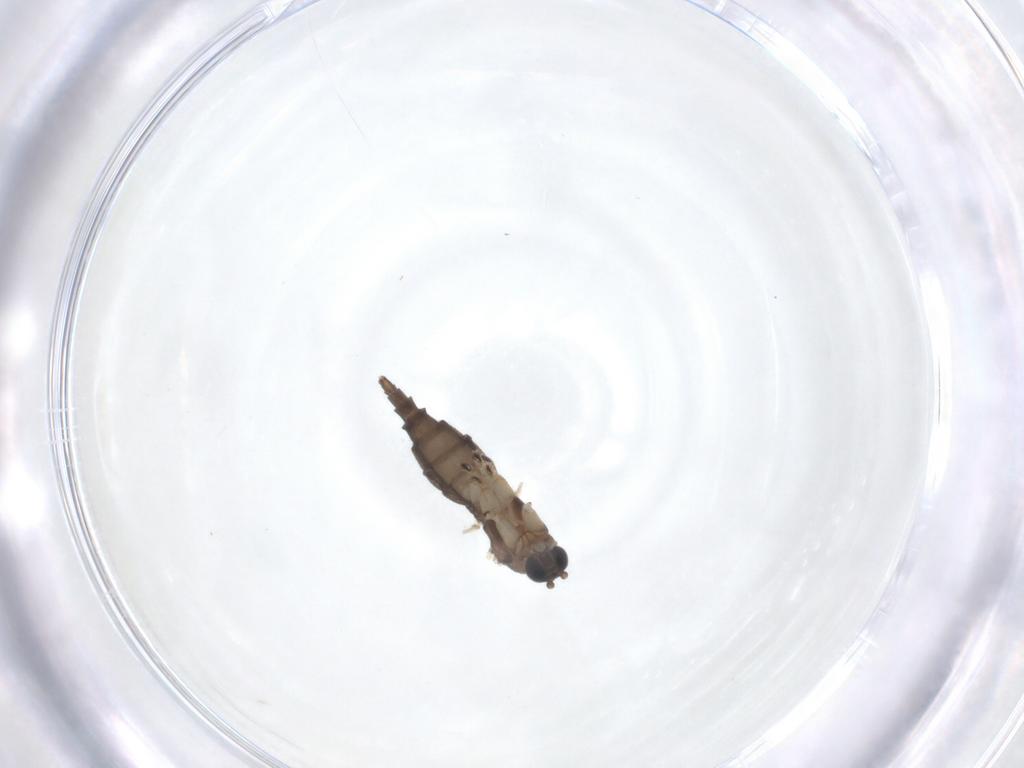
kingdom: Animalia
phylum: Arthropoda
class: Insecta
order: Diptera
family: Sciaridae
